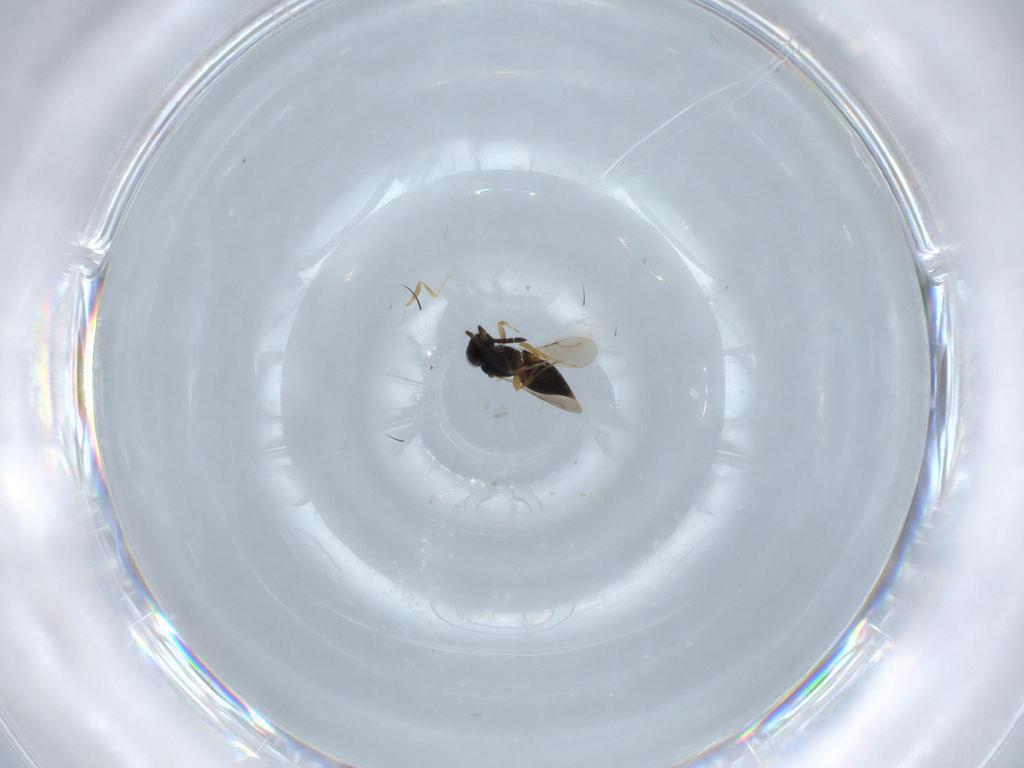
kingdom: Animalia
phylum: Arthropoda
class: Insecta
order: Hymenoptera
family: Ceraphronidae
